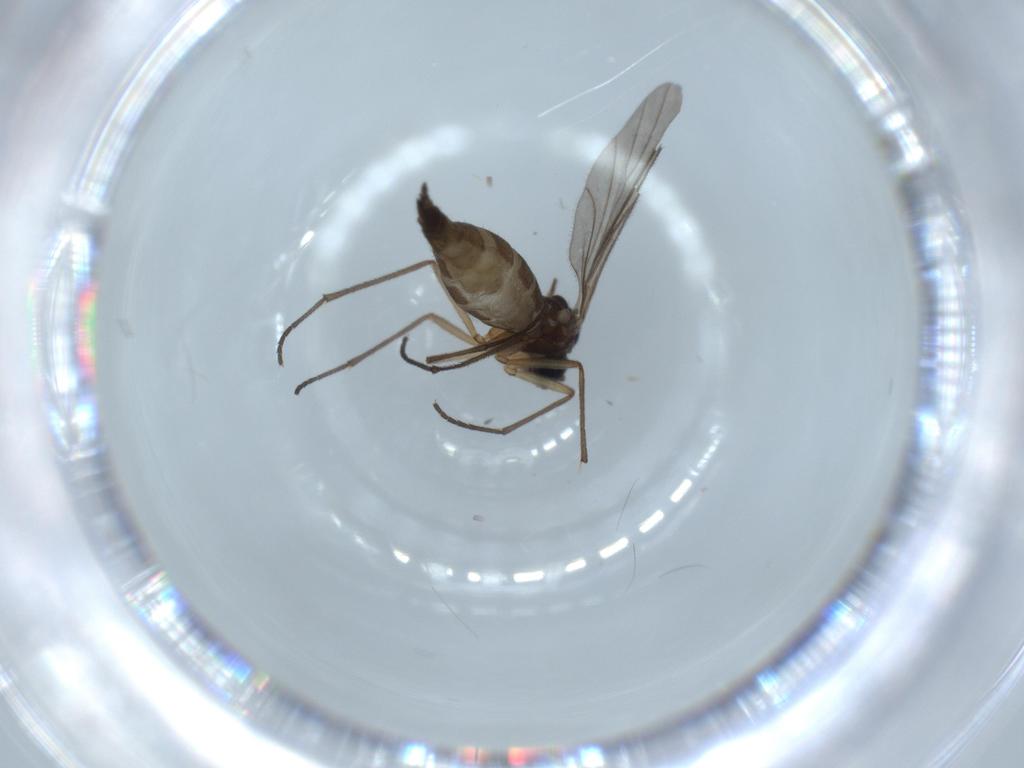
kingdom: Animalia
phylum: Arthropoda
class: Insecta
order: Diptera
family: Sciaridae
